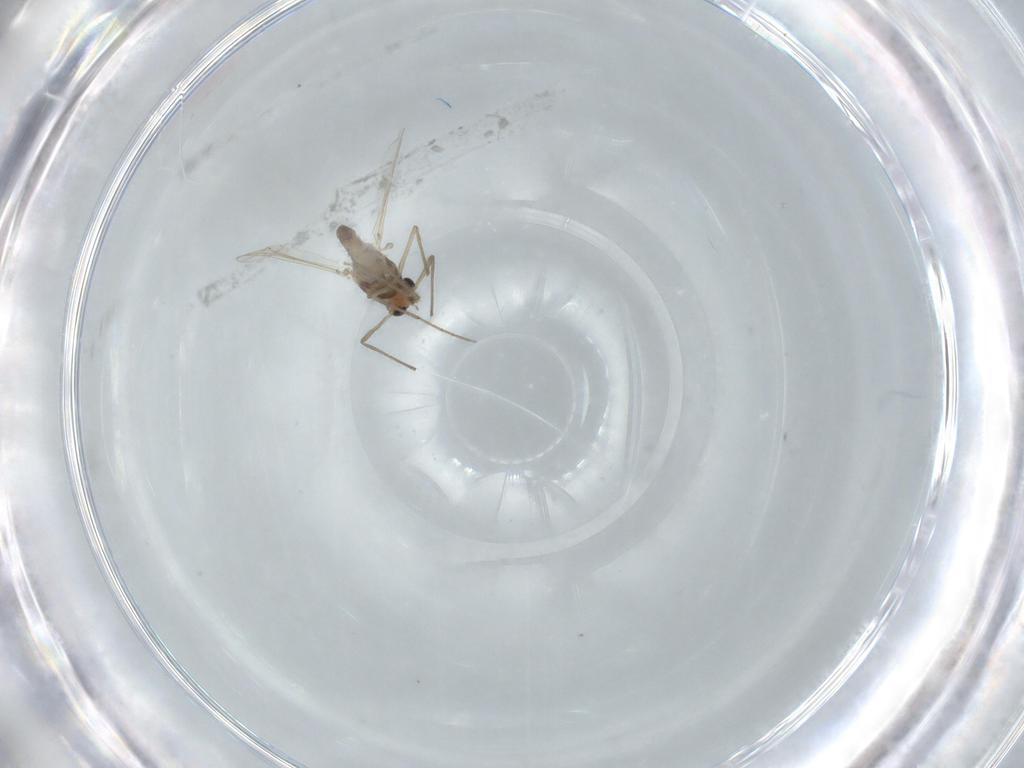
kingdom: Animalia
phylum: Arthropoda
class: Insecta
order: Diptera
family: Chironomidae
